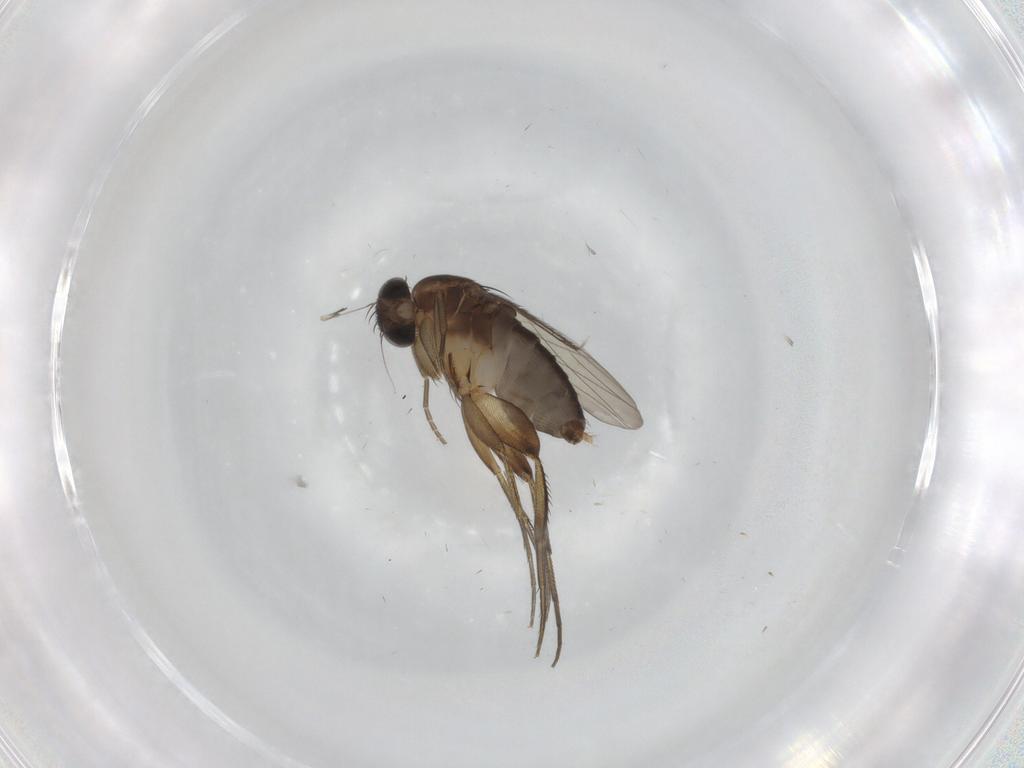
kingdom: Animalia
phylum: Arthropoda
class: Insecta
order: Diptera
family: Phoridae
